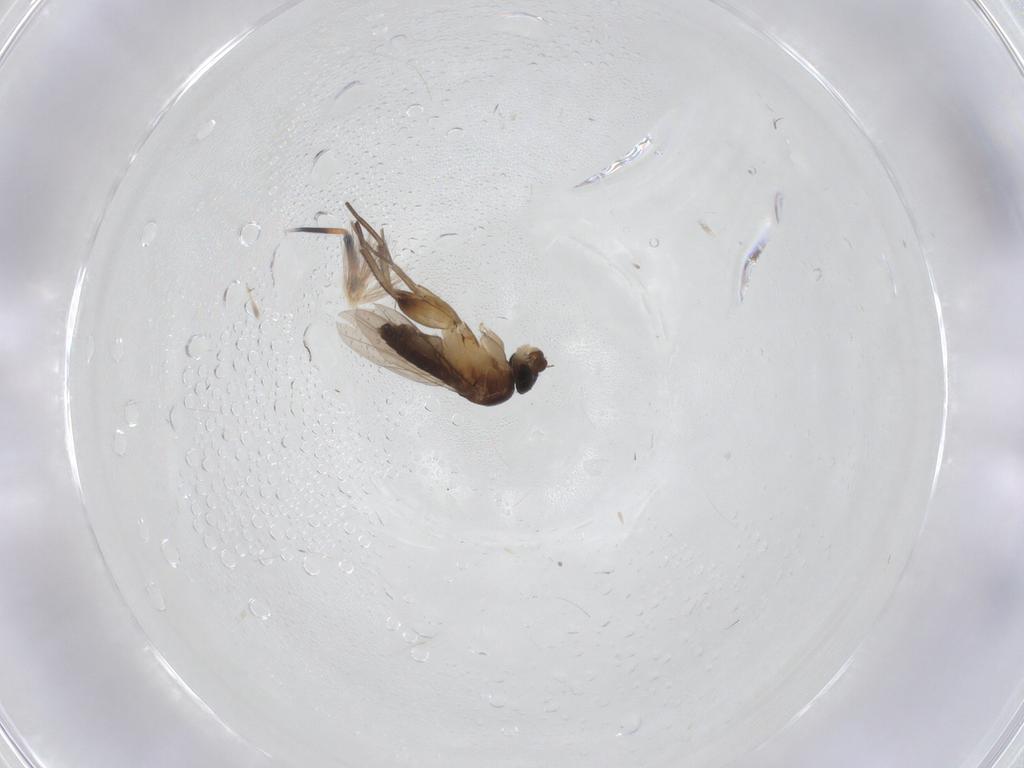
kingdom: Animalia
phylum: Arthropoda
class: Insecta
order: Diptera
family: Phoridae
